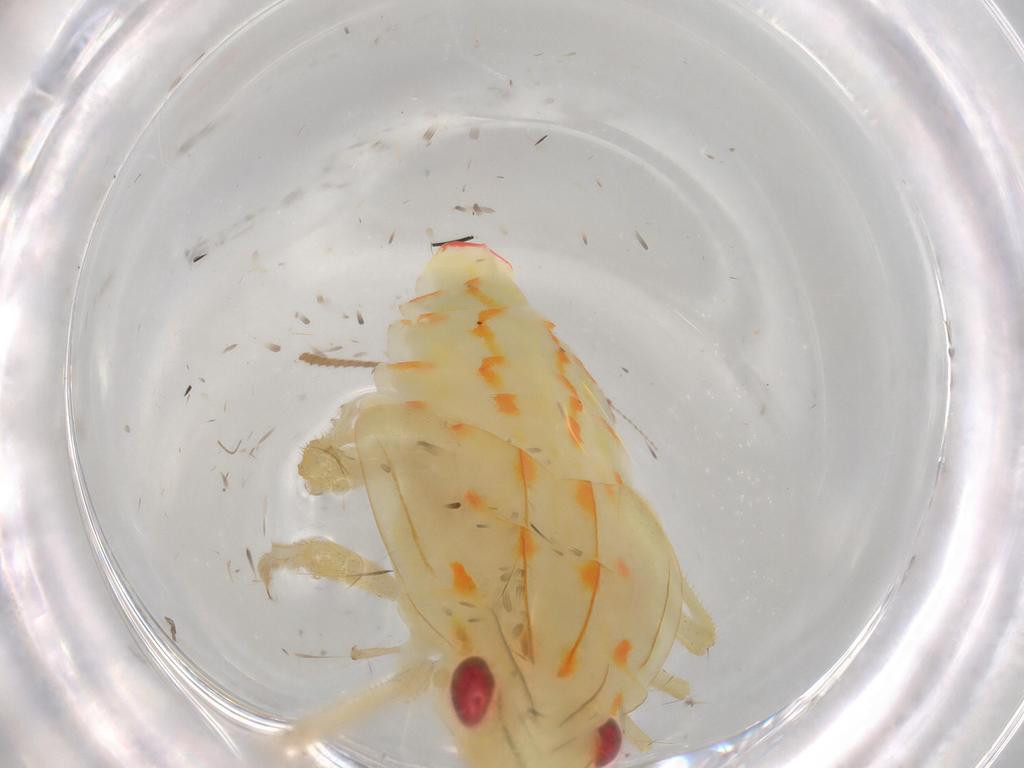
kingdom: Animalia
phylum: Arthropoda
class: Insecta
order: Hemiptera
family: Tropiduchidae
